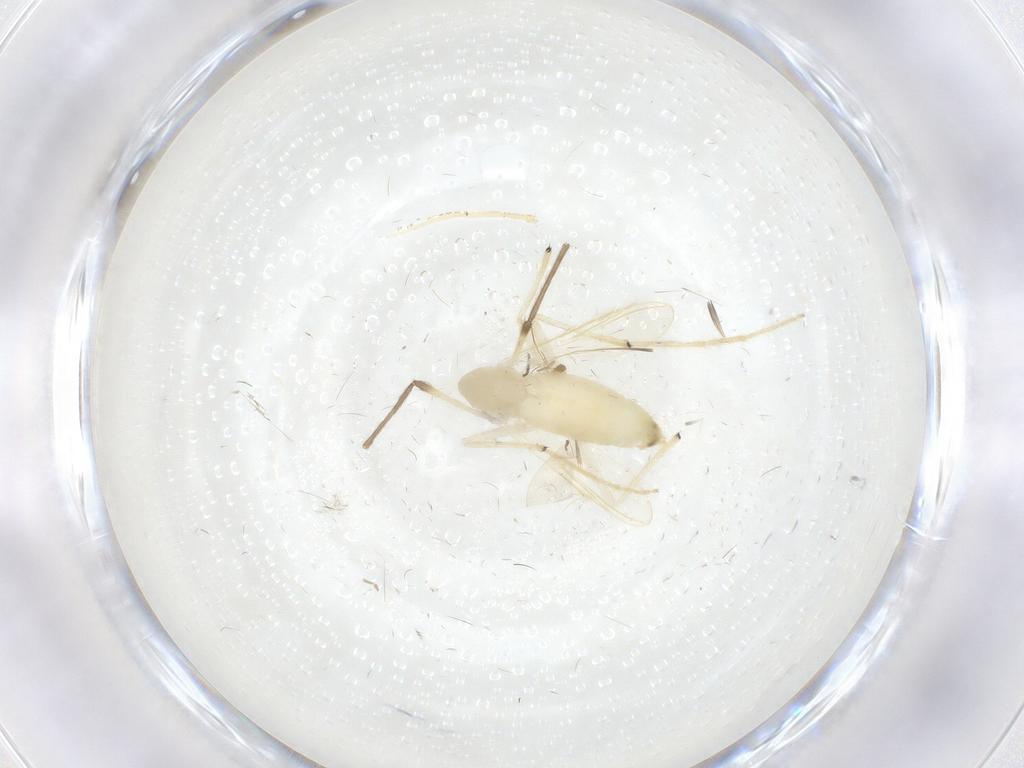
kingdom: Animalia
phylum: Arthropoda
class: Insecta
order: Diptera
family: Chironomidae
